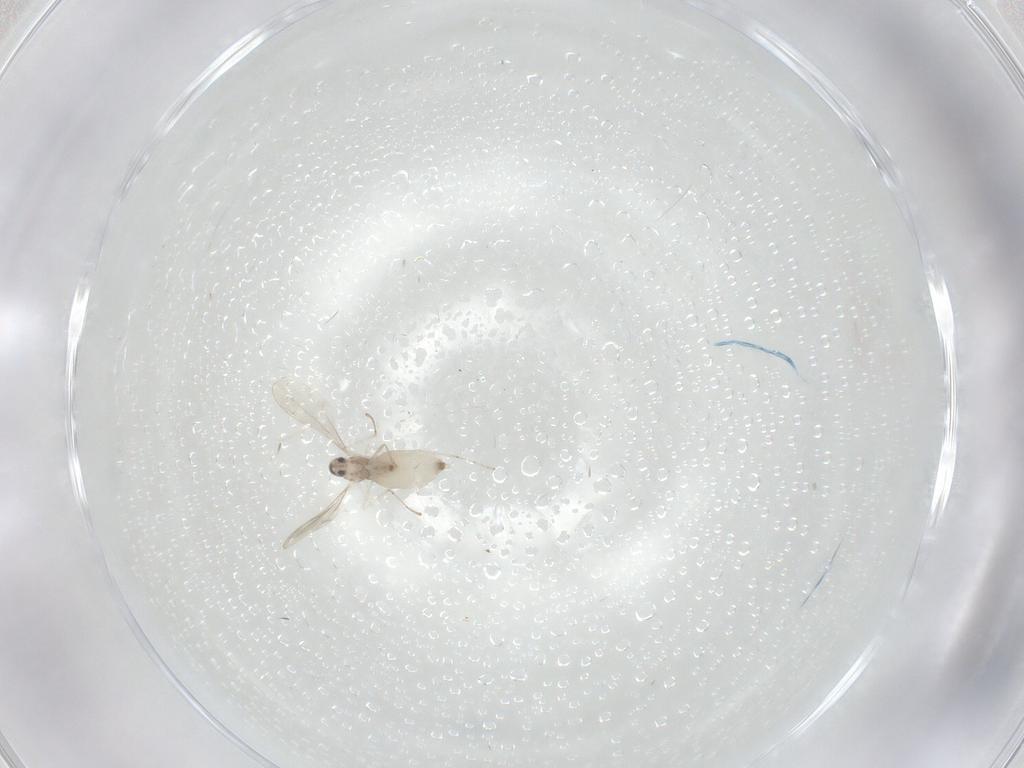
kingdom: Animalia
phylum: Arthropoda
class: Insecta
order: Diptera
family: Cecidomyiidae
